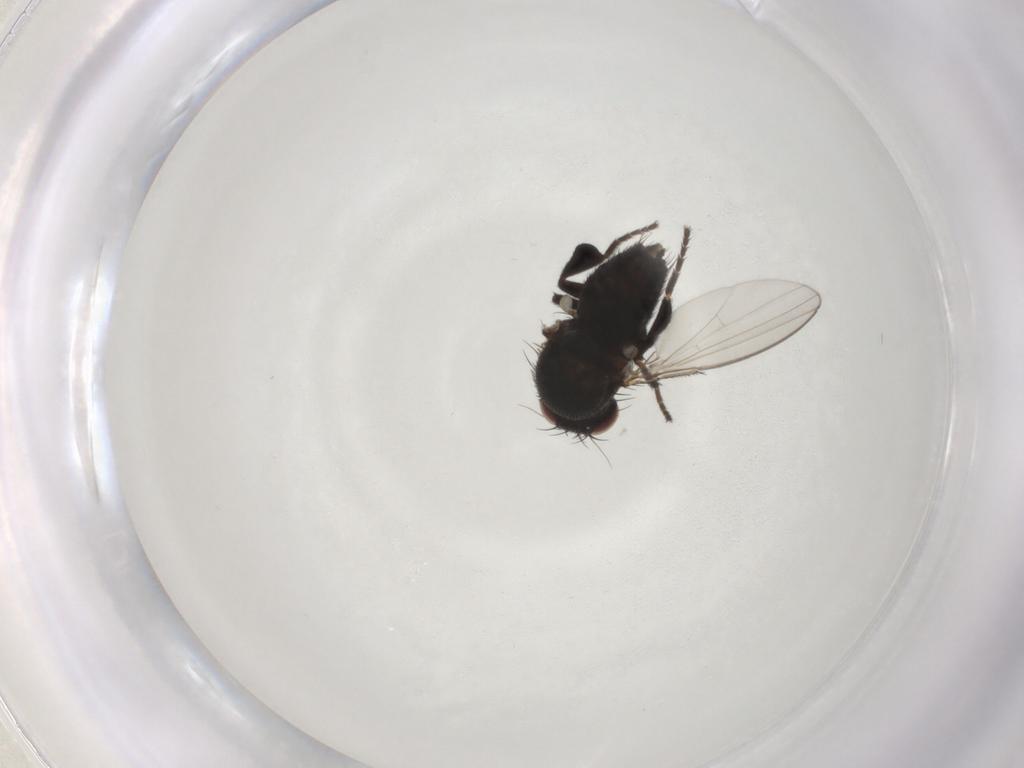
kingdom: Animalia
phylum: Arthropoda
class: Insecta
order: Diptera
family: Milichiidae
